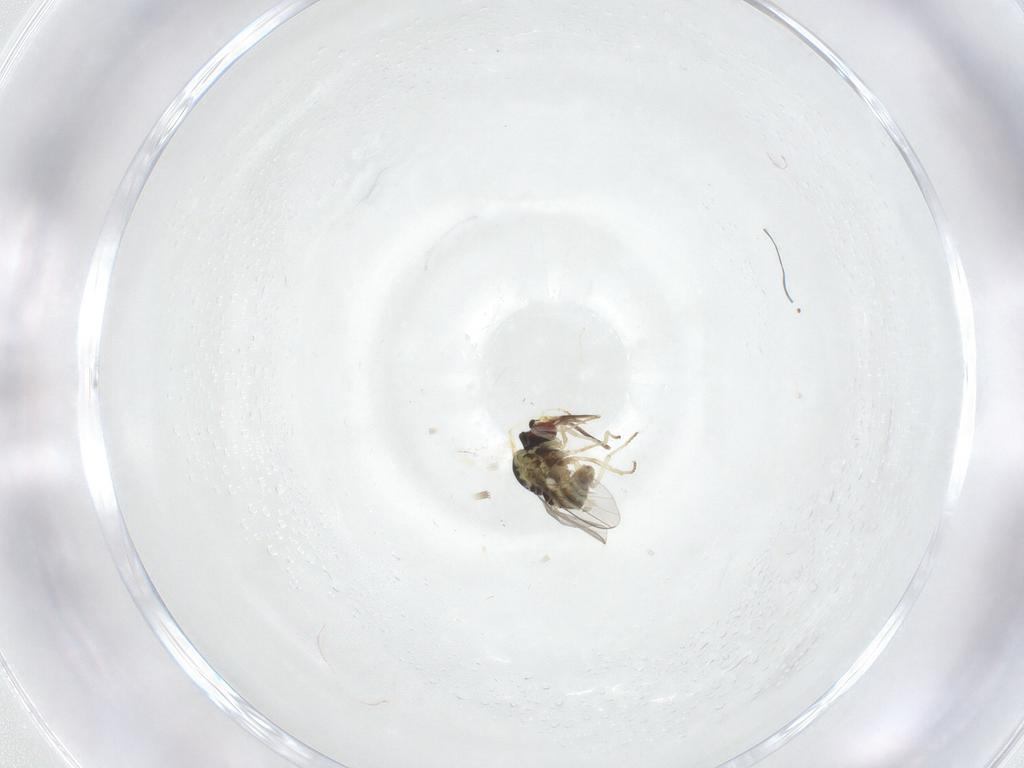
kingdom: Animalia
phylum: Arthropoda
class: Insecta
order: Diptera
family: Ceratopogonidae
